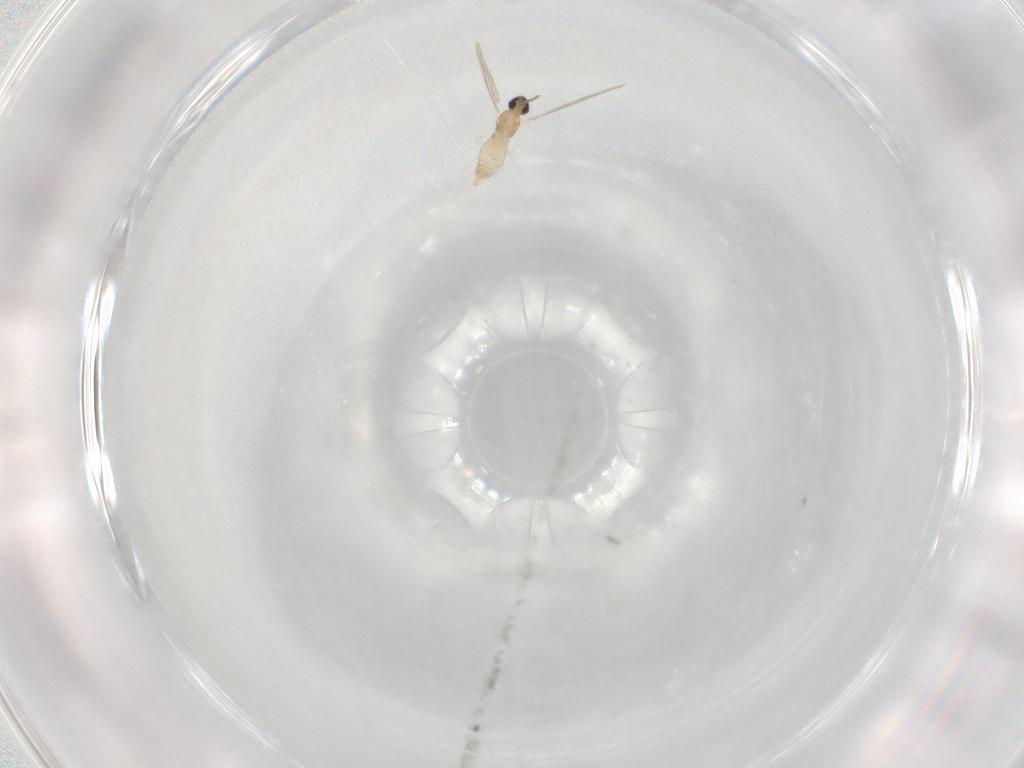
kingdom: Animalia
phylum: Arthropoda
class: Insecta
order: Diptera
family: Cecidomyiidae
